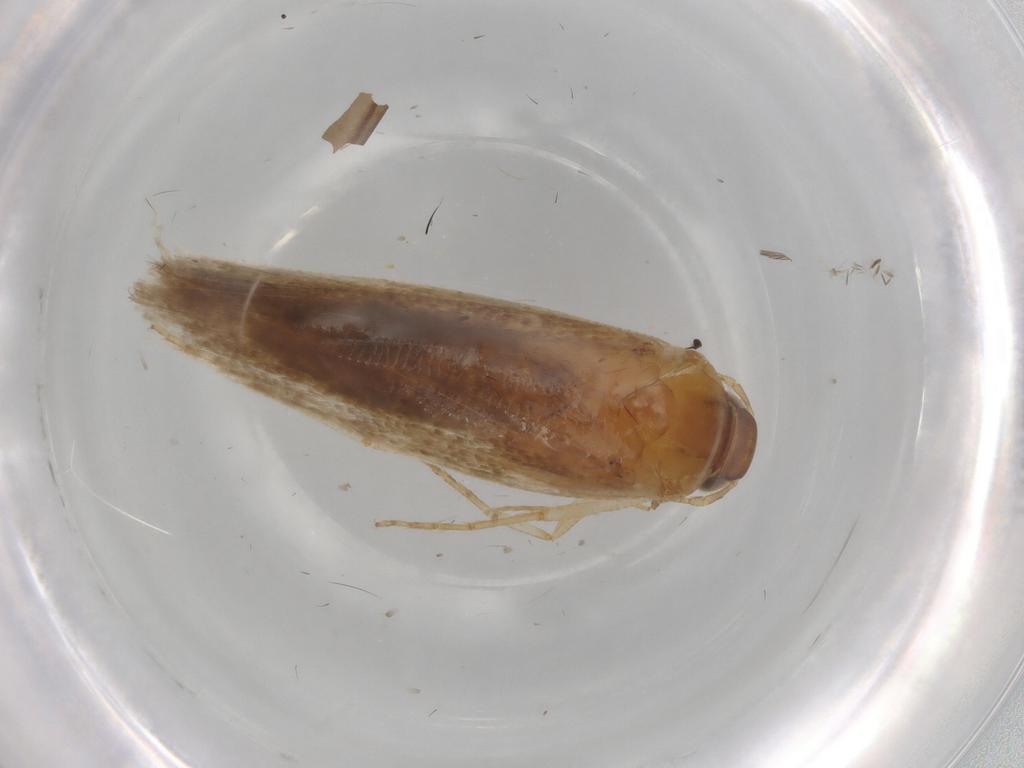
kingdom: Animalia
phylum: Arthropoda
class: Insecta
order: Lepidoptera
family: Gelechiidae
